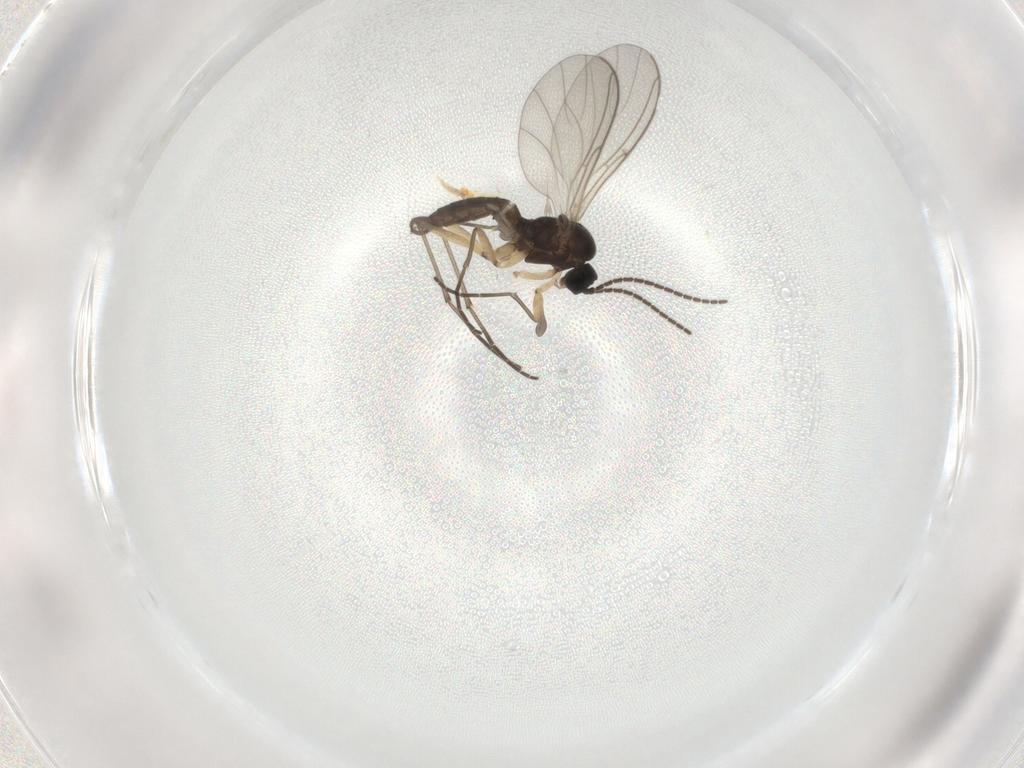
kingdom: Animalia
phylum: Arthropoda
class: Insecta
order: Diptera
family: Sciaridae
